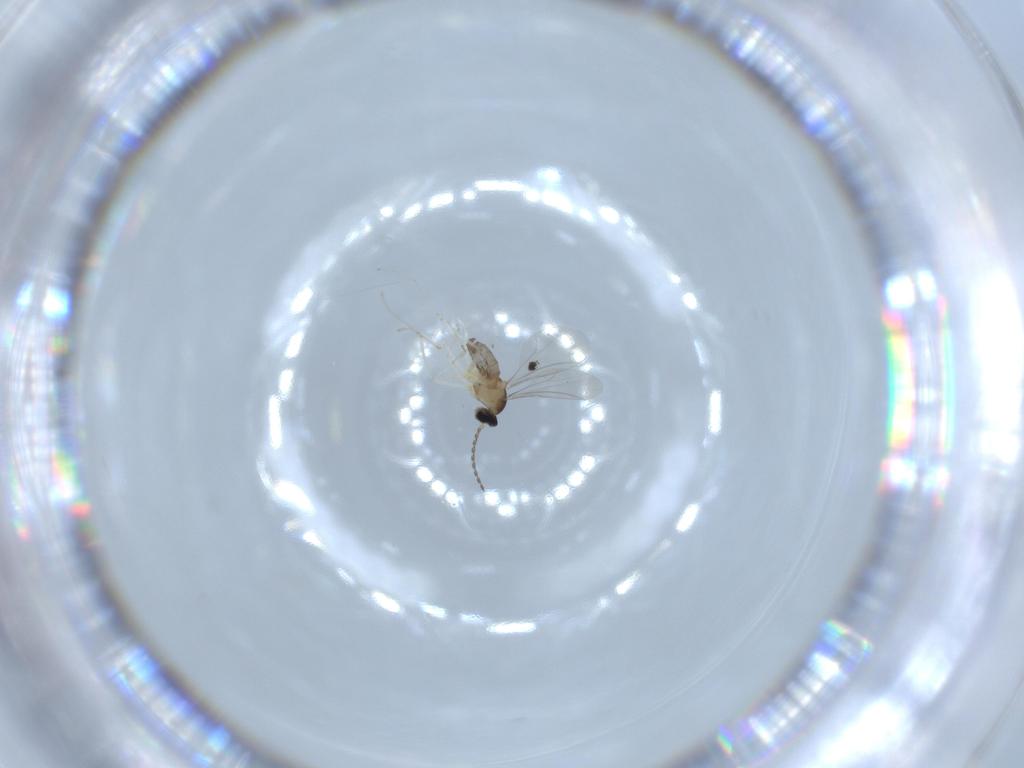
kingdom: Animalia
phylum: Arthropoda
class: Insecta
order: Diptera
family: Cecidomyiidae
